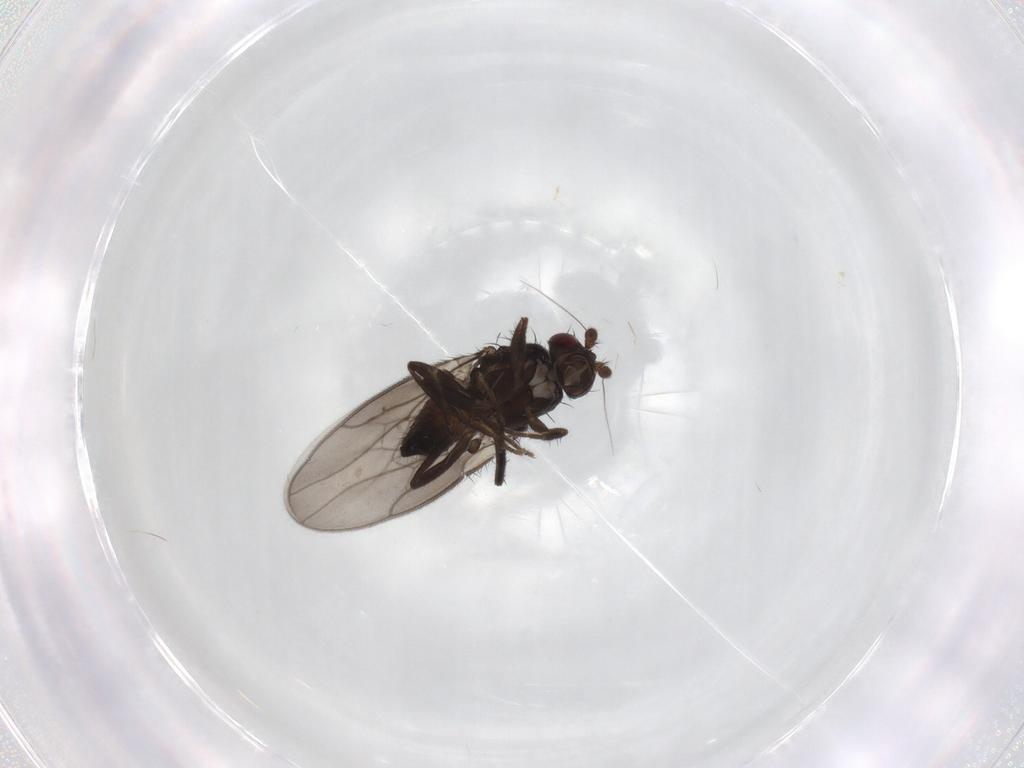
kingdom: Animalia
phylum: Arthropoda
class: Insecta
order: Diptera
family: Sphaeroceridae
